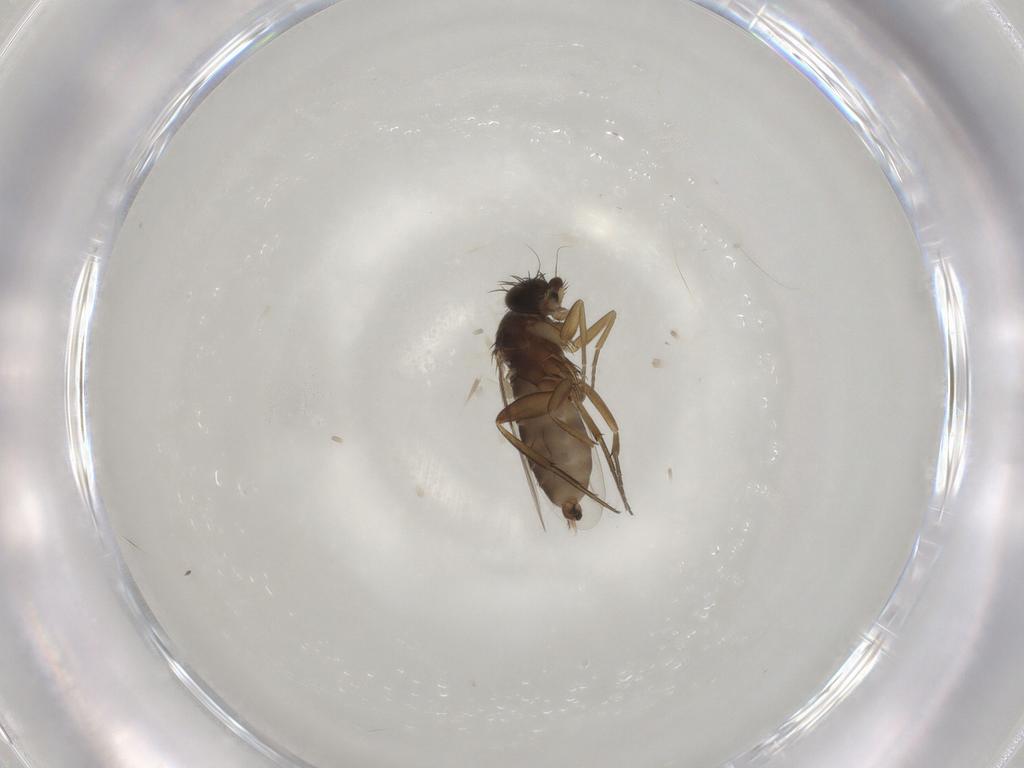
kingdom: Animalia
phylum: Arthropoda
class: Insecta
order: Diptera
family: Phoridae
